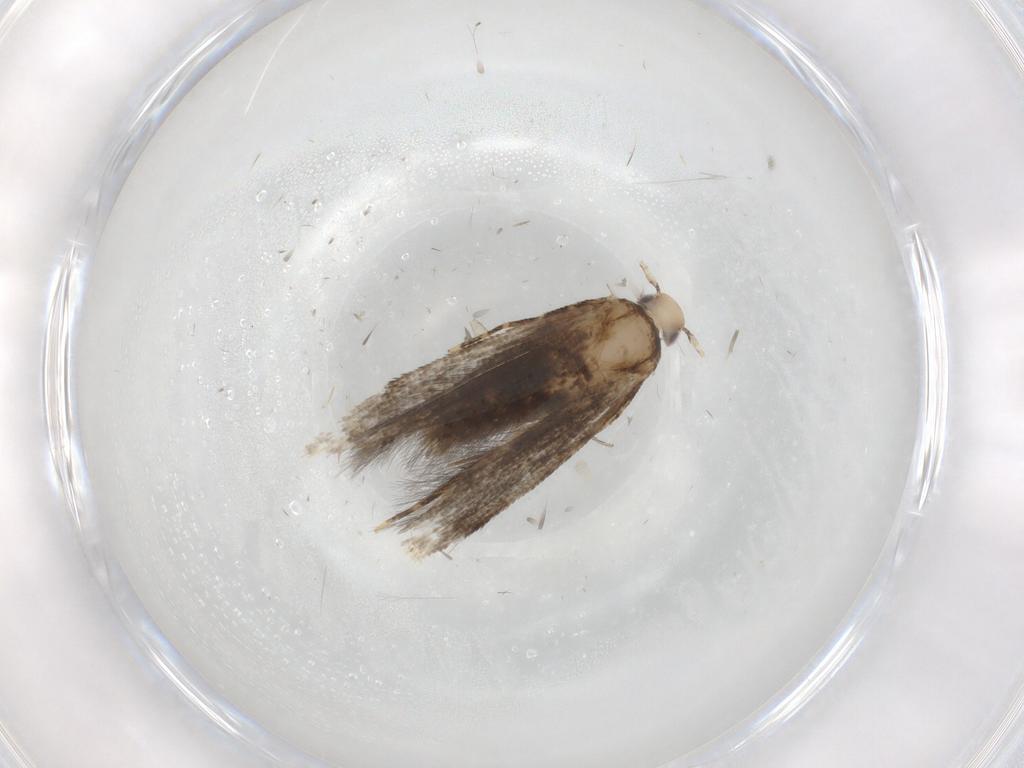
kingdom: Animalia
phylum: Arthropoda
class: Insecta
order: Lepidoptera
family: Cosmopterigidae
